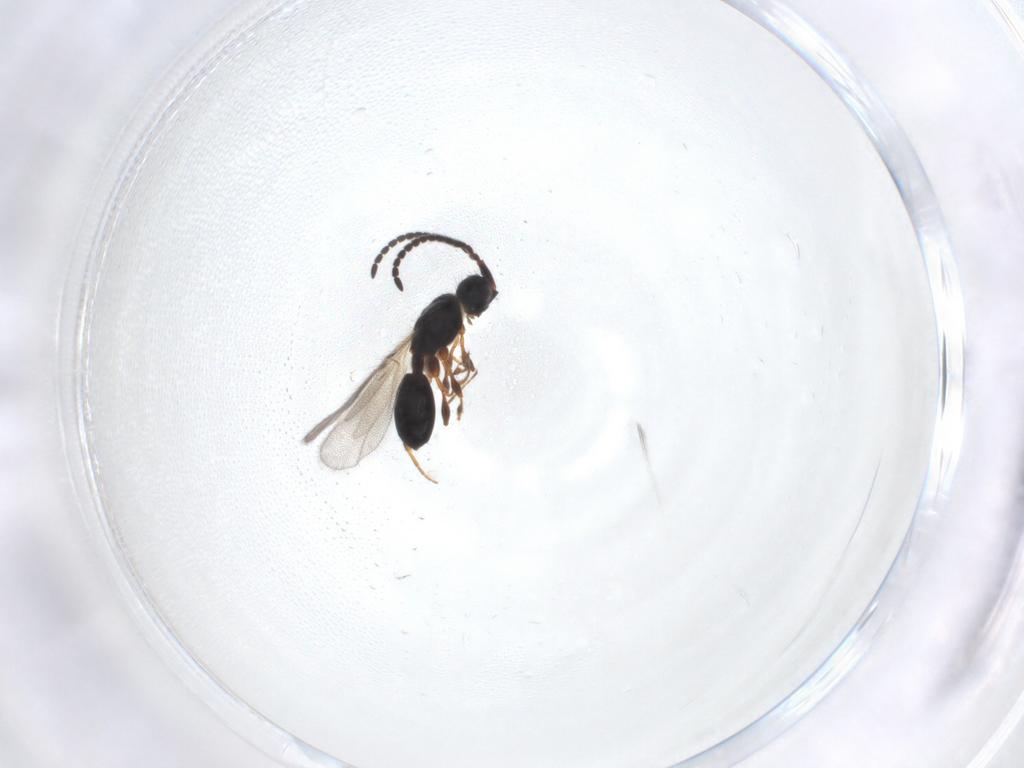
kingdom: Animalia
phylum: Arthropoda
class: Insecta
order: Hymenoptera
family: Diapriidae
